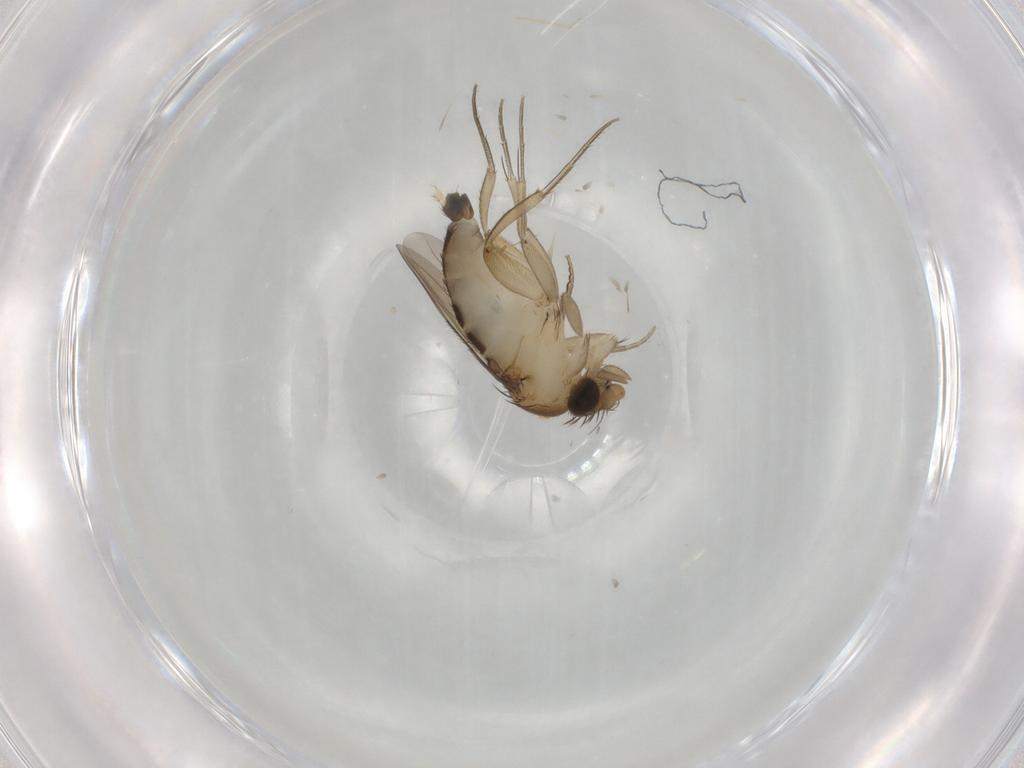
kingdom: Animalia
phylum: Arthropoda
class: Insecta
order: Diptera
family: Phoridae
